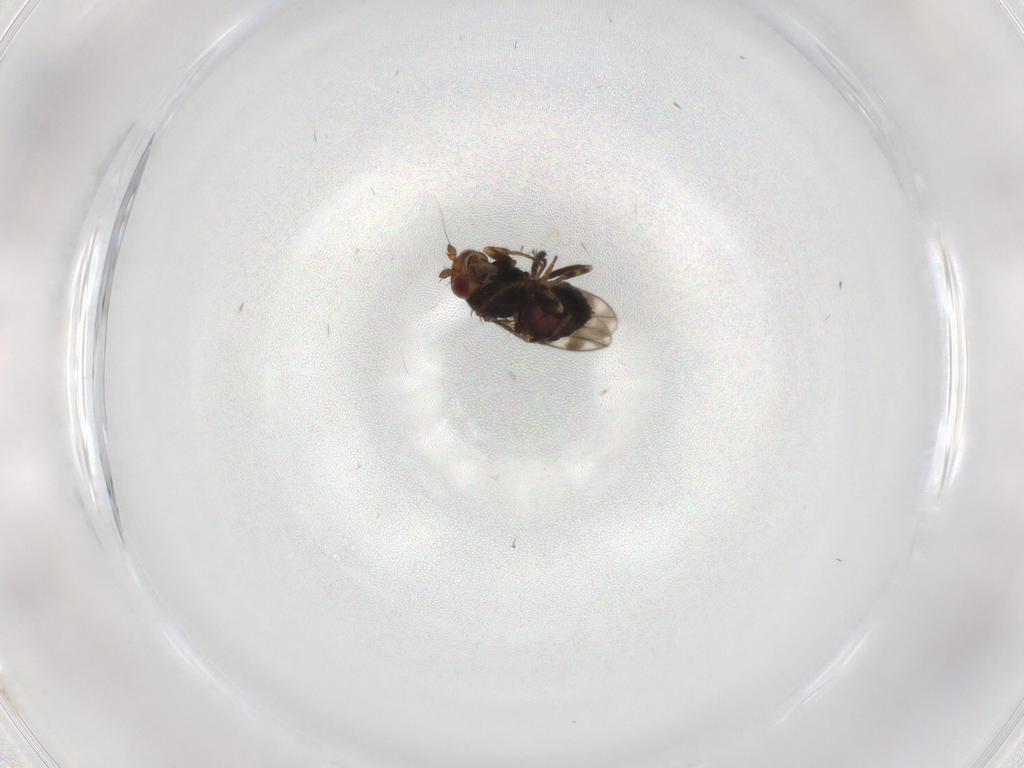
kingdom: Animalia
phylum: Arthropoda
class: Insecta
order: Diptera
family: Sphaeroceridae
